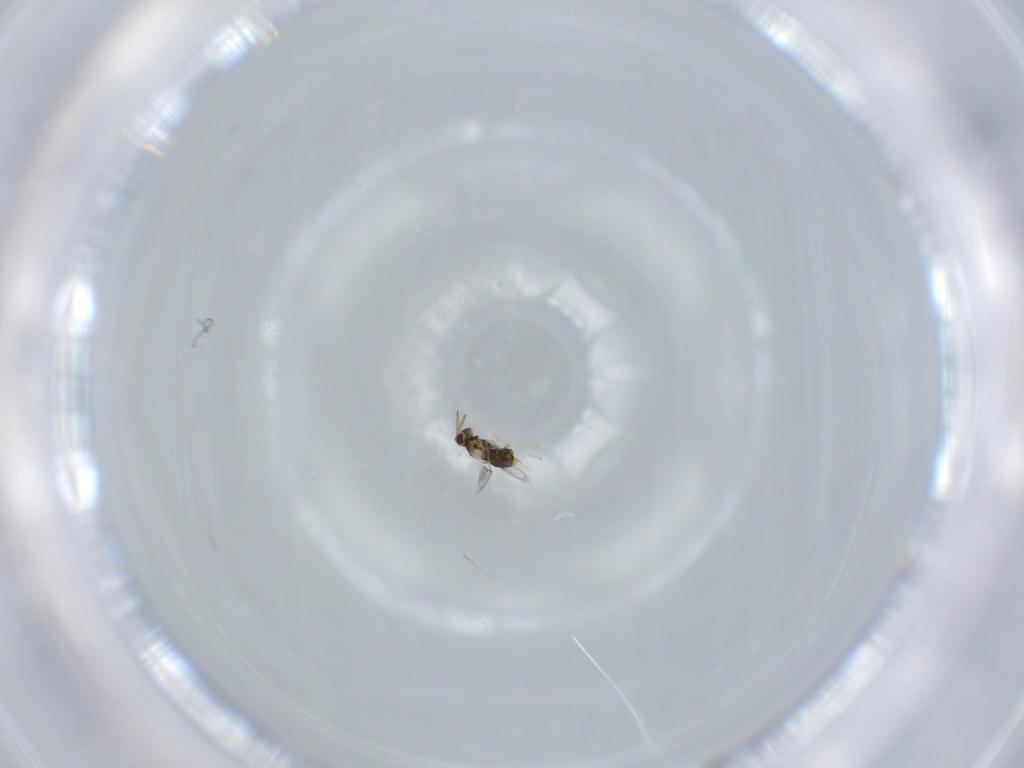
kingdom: Animalia
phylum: Arthropoda
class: Insecta
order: Hymenoptera
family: Aphelinidae
